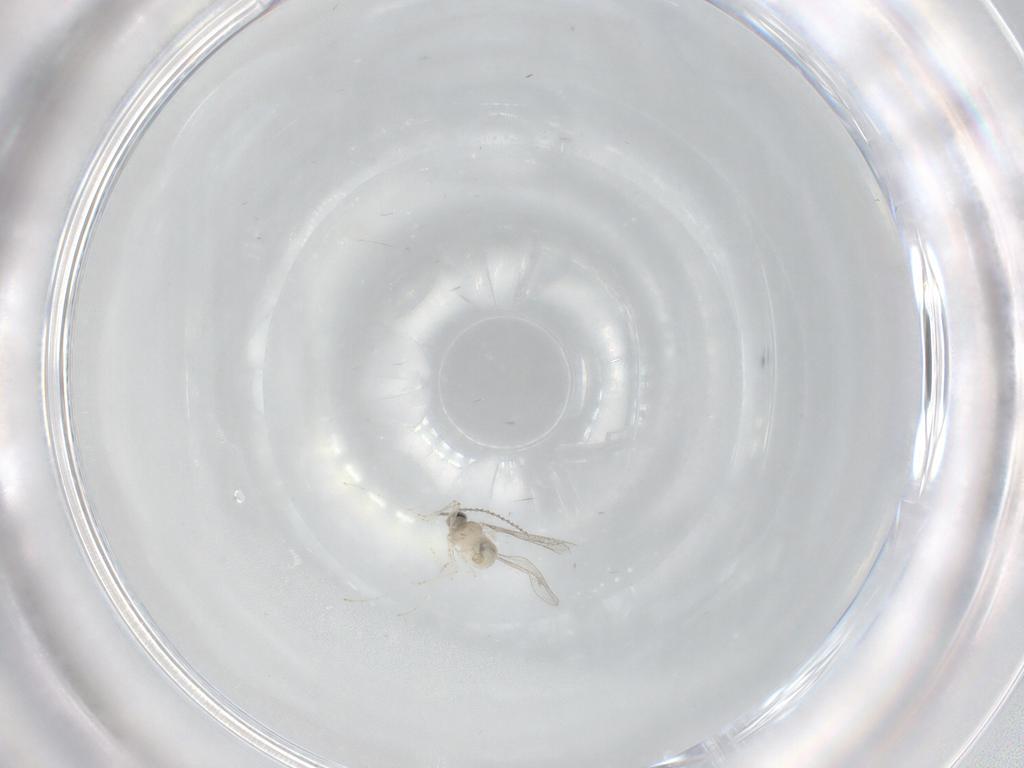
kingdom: Animalia
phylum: Arthropoda
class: Insecta
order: Diptera
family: Cecidomyiidae
